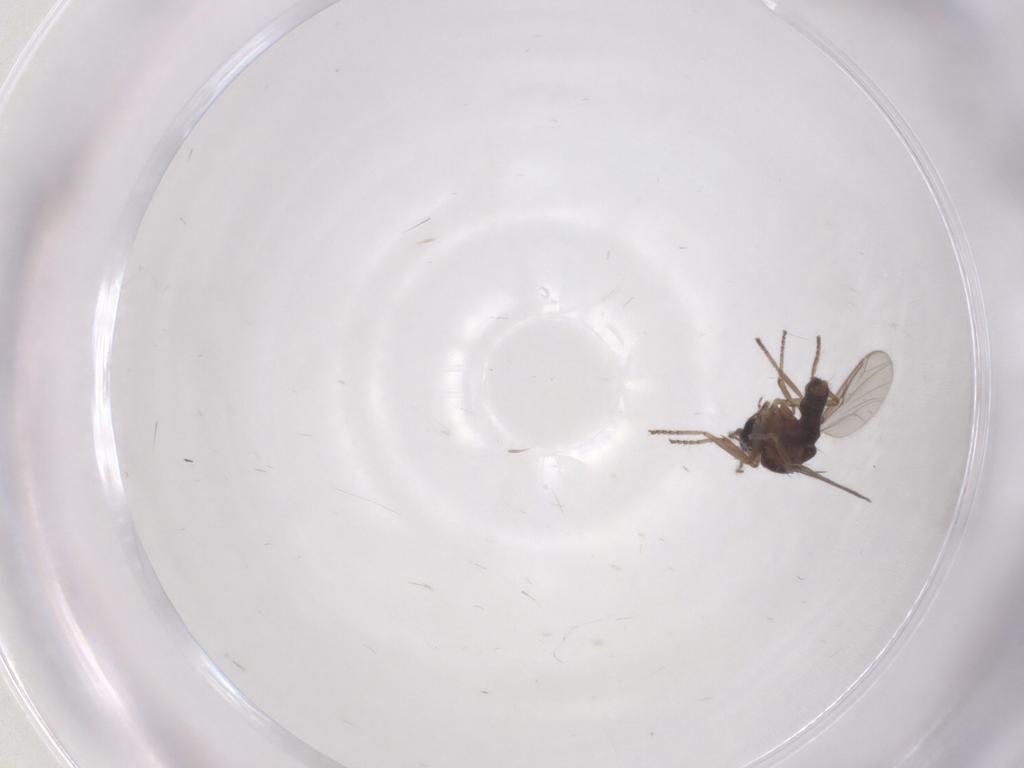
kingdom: Animalia
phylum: Arthropoda
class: Insecta
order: Diptera
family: Ceratopogonidae
